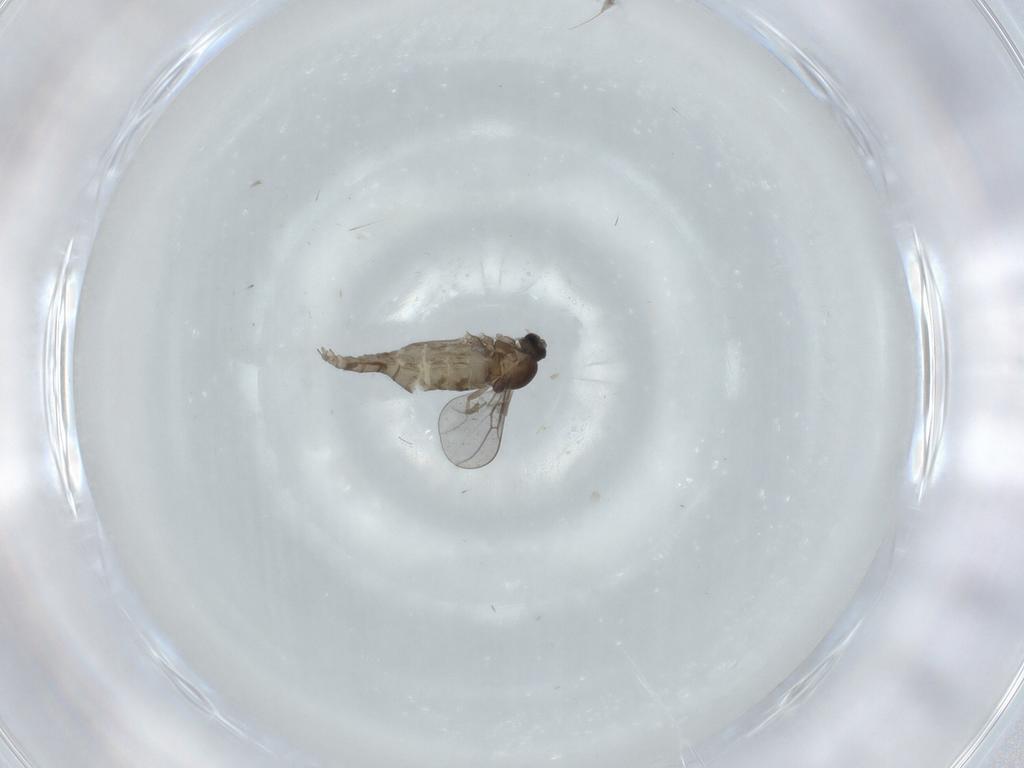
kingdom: Animalia
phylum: Arthropoda
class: Insecta
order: Diptera
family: Cecidomyiidae
